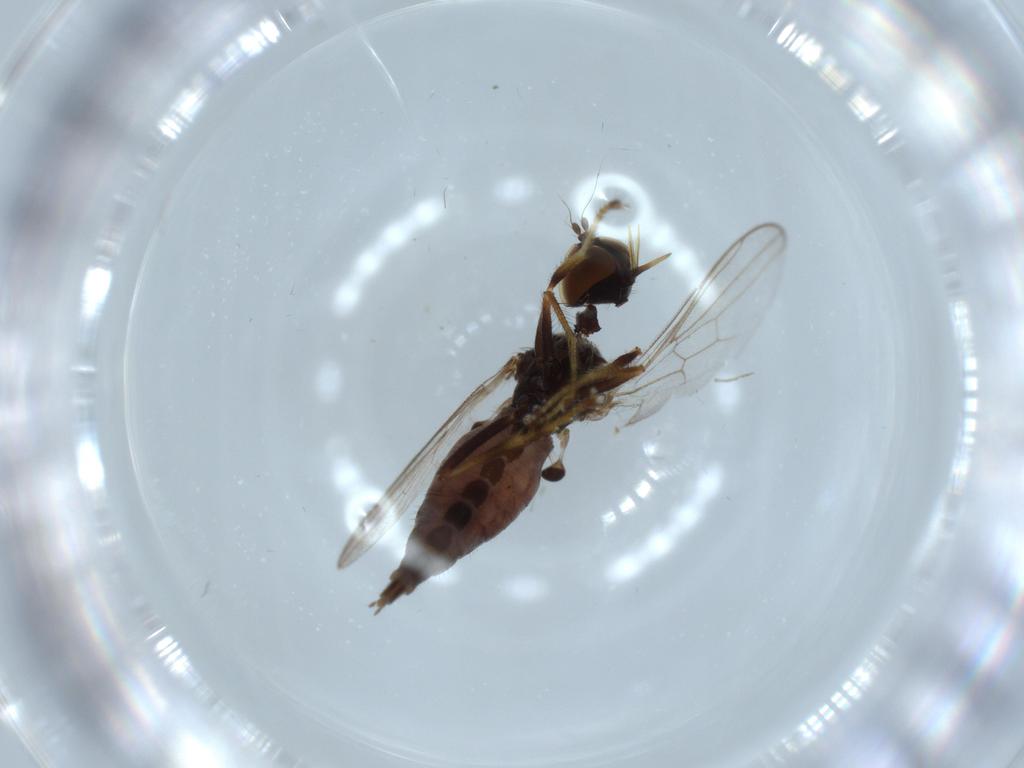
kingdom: Animalia
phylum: Arthropoda
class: Insecta
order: Diptera
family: Hybotidae
